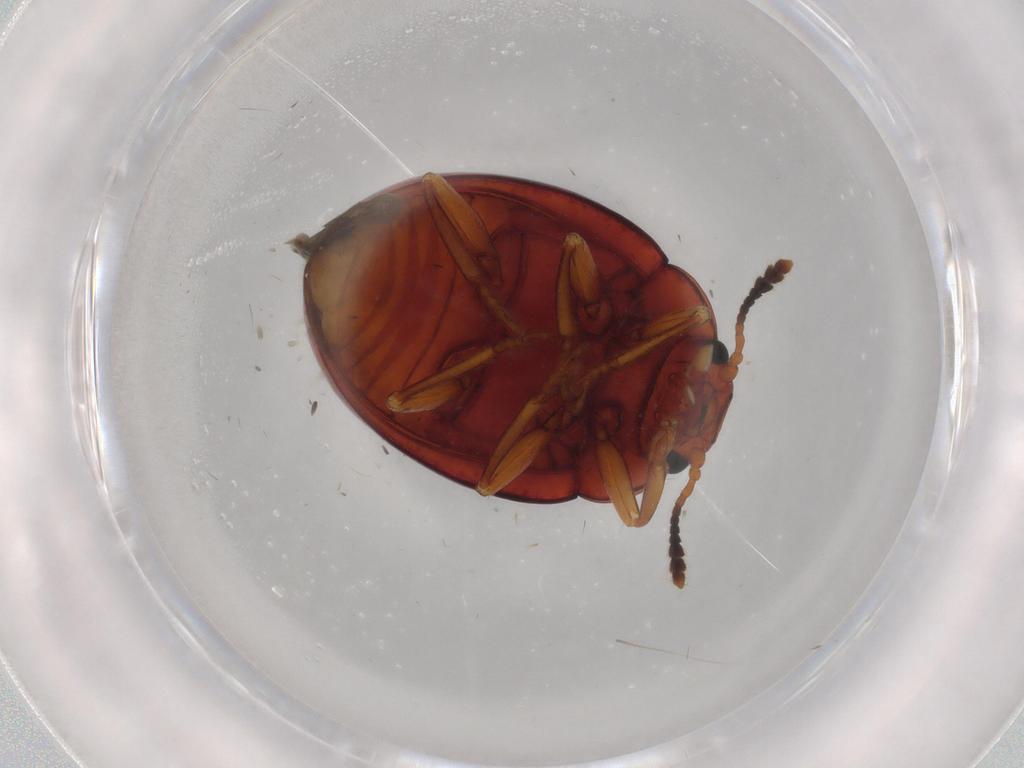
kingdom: Animalia
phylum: Arthropoda
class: Insecta
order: Coleoptera
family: Erotylidae
